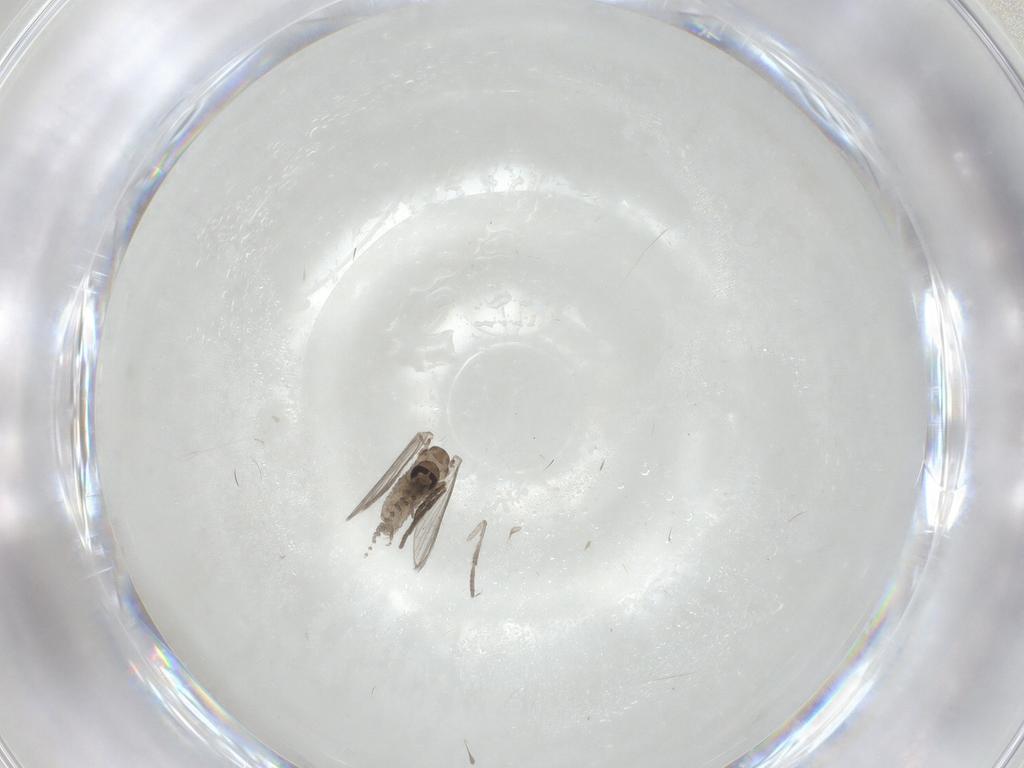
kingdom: Animalia
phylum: Arthropoda
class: Insecta
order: Diptera
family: Psychodidae
